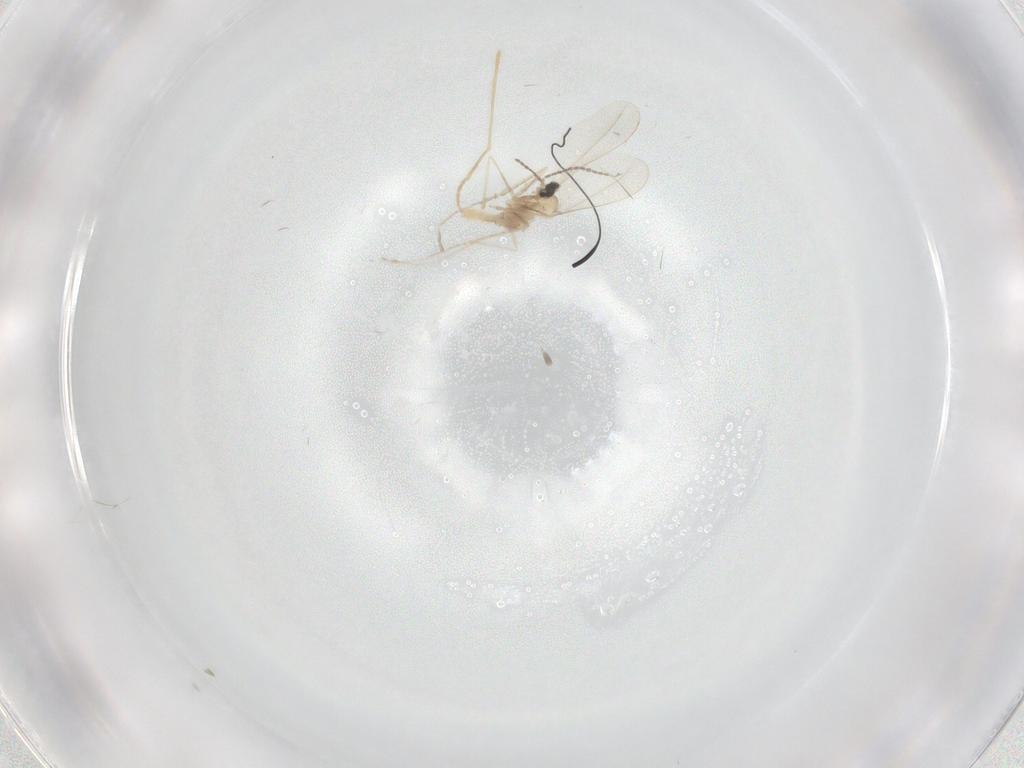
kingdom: Animalia
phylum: Arthropoda
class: Insecta
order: Diptera
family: Cecidomyiidae
